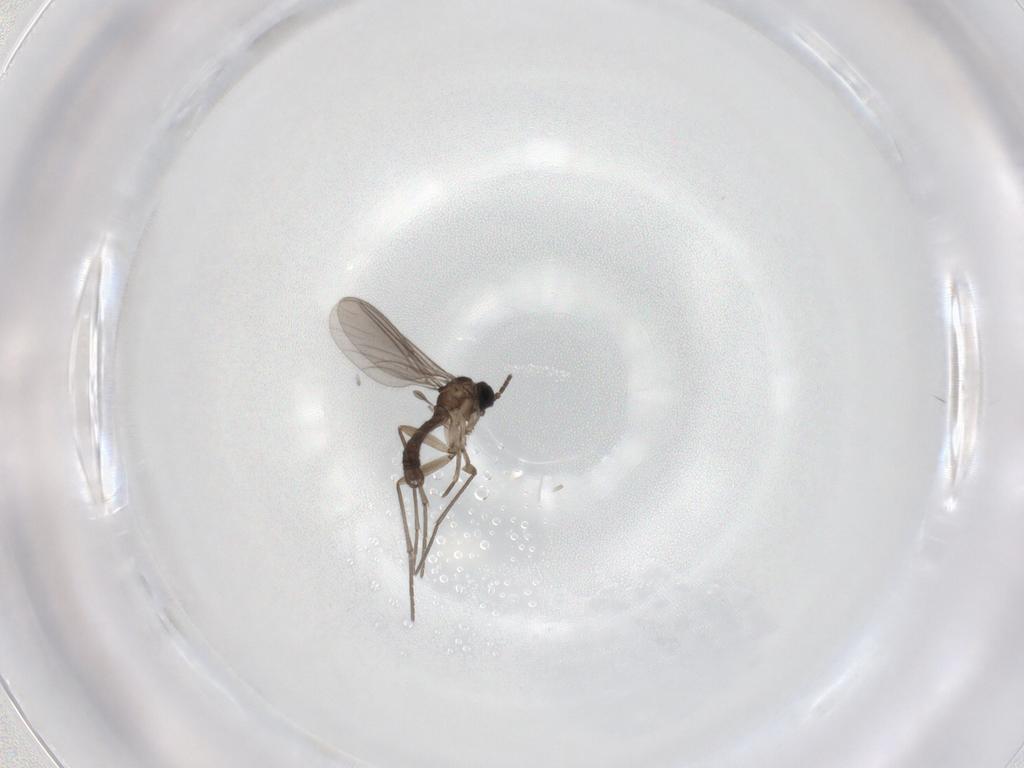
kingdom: Animalia
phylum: Arthropoda
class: Insecta
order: Diptera
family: Sciaridae
